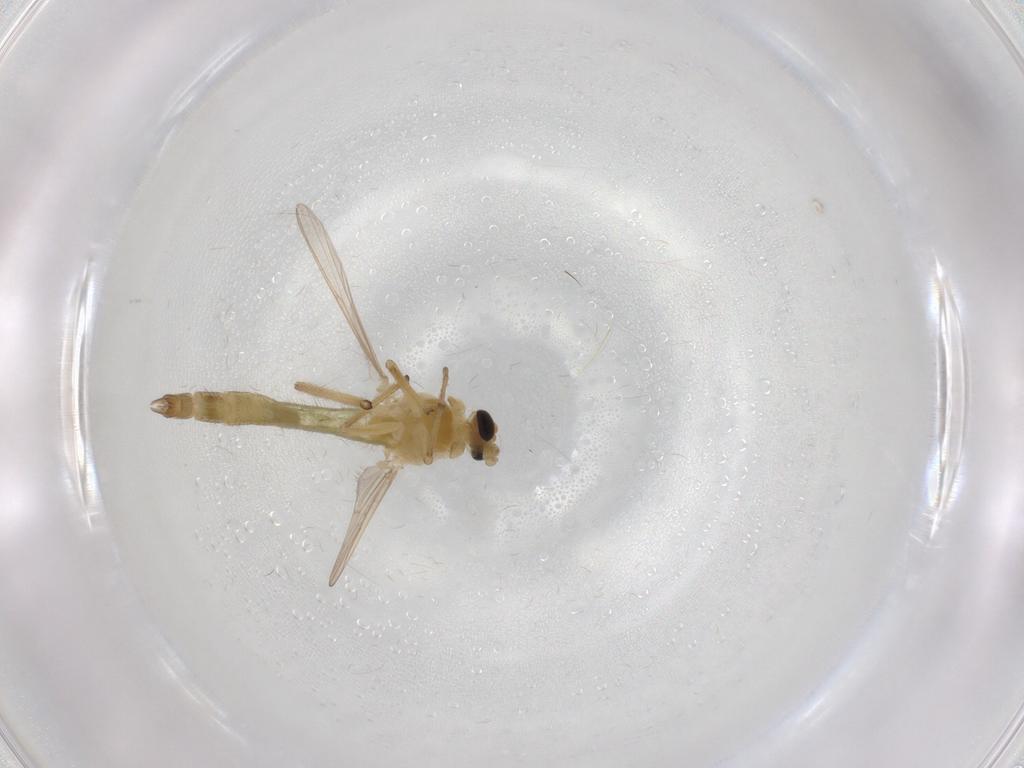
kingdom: Animalia
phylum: Arthropoda
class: Insecta
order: Diptera
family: Chironomidae
